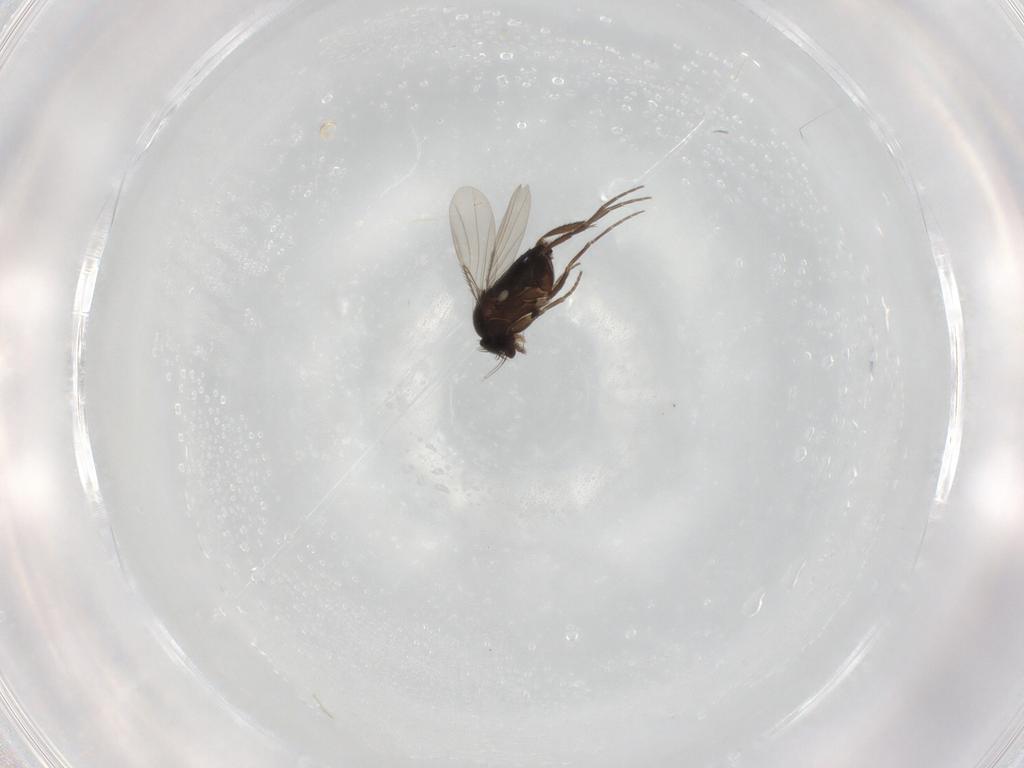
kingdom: Animalia
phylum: Arthropoda
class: Insecta
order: Diptera
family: Phoridae
